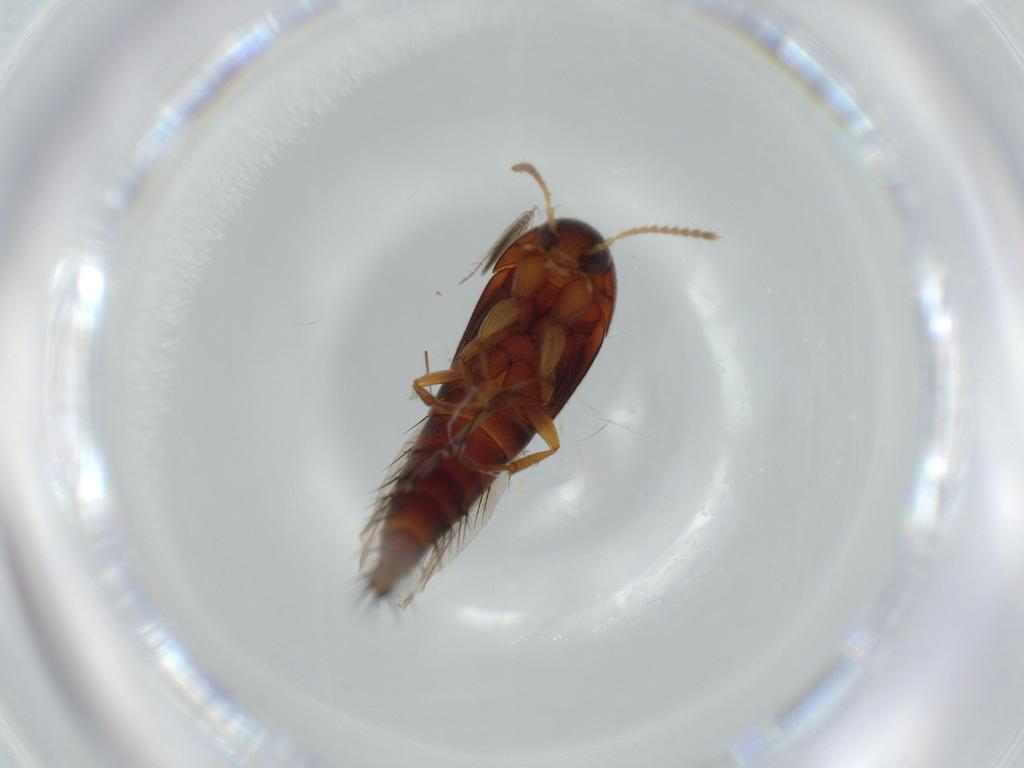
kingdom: Animalia
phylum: Arthropoda
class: Insecta
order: Coleoptera
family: Staphylinidae
